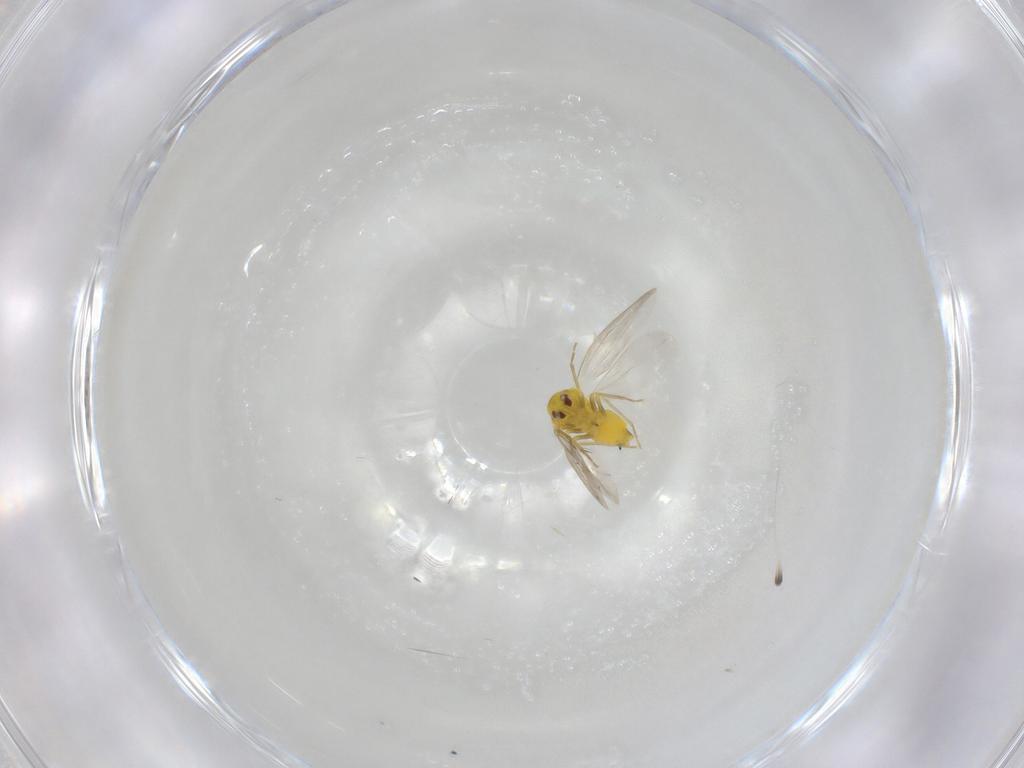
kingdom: Animalia
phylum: Arthropoda
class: Insecta
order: Hemiptera
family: Aleyrodidae
